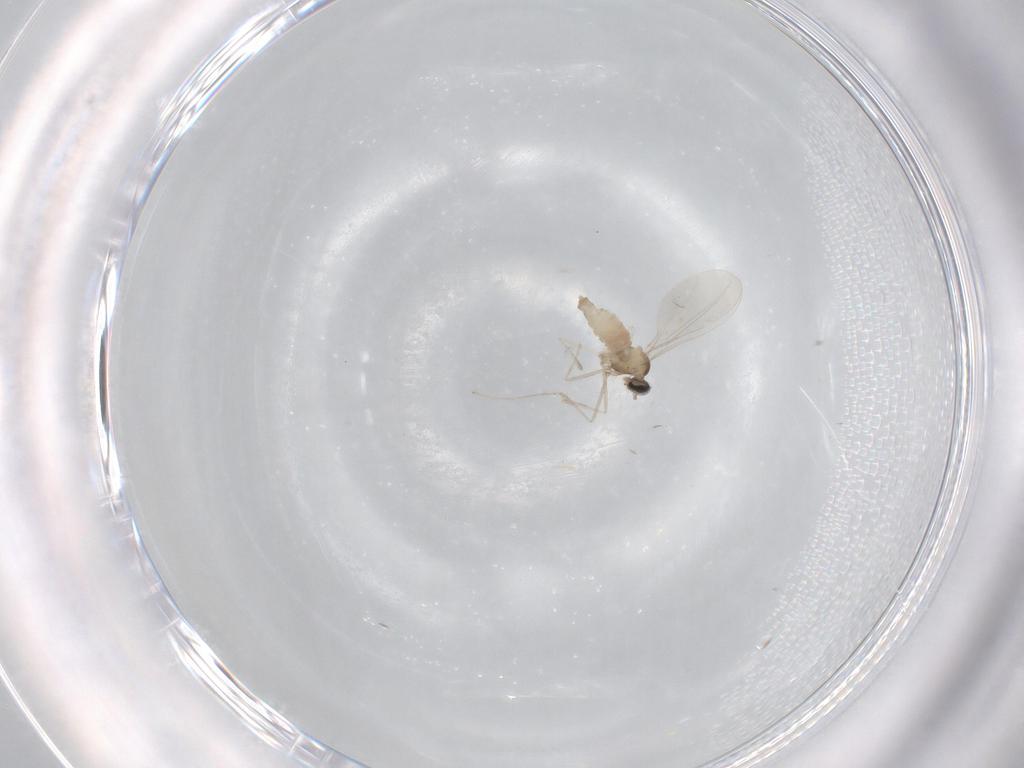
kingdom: Animalia
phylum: Arthropoda
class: Insecta
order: Diptera
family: Cecidomyiidae
